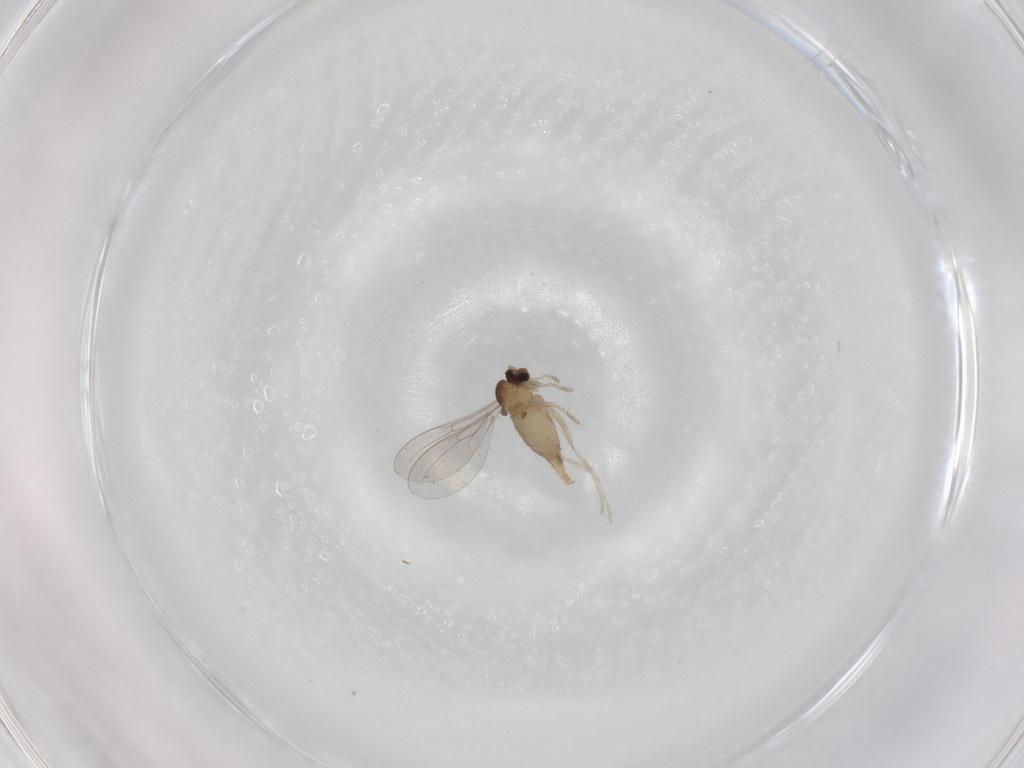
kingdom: Animalia
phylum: Arthropoda
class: Insecta
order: Diptera
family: Cecidomyiidae
